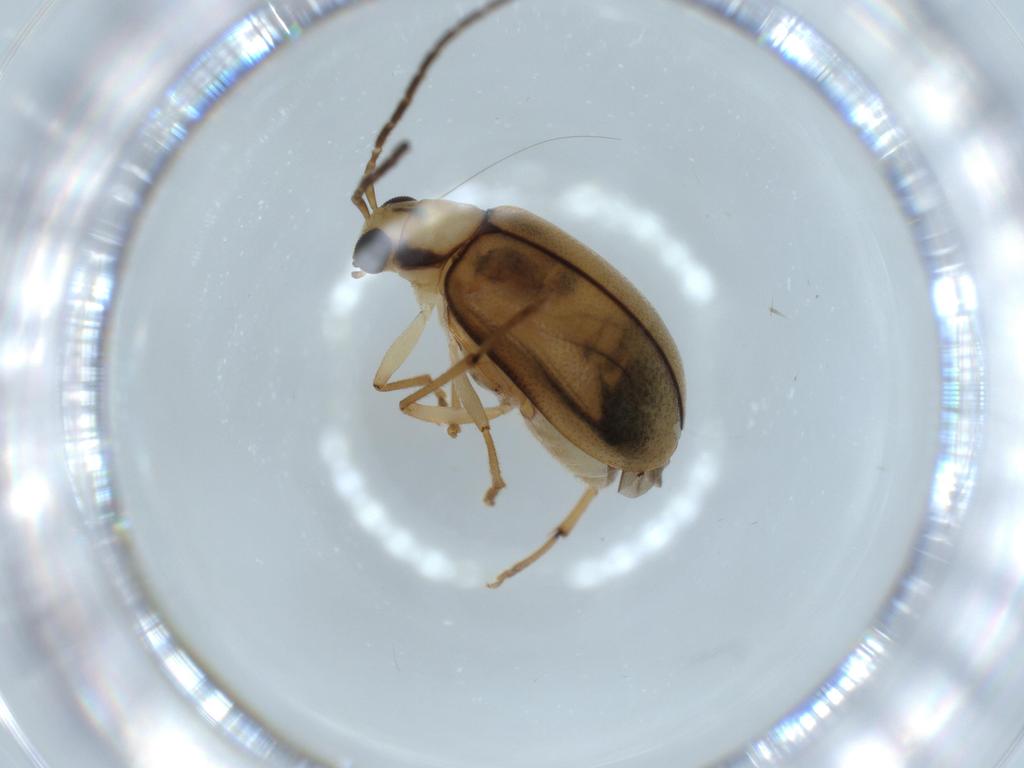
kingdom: Animalia
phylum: Arthropoda
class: Insecta
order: Coleoptera
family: Chrysomelidae
